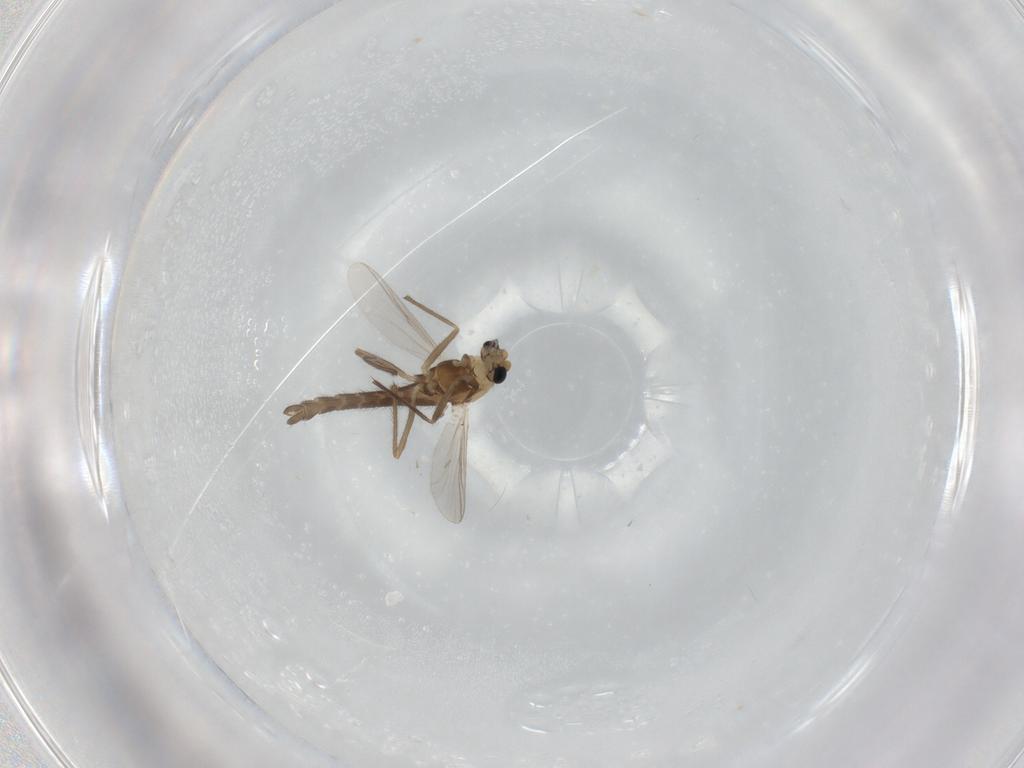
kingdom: Animalia
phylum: Arthropoda
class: Insecta
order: Diptera
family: Chironomidae
